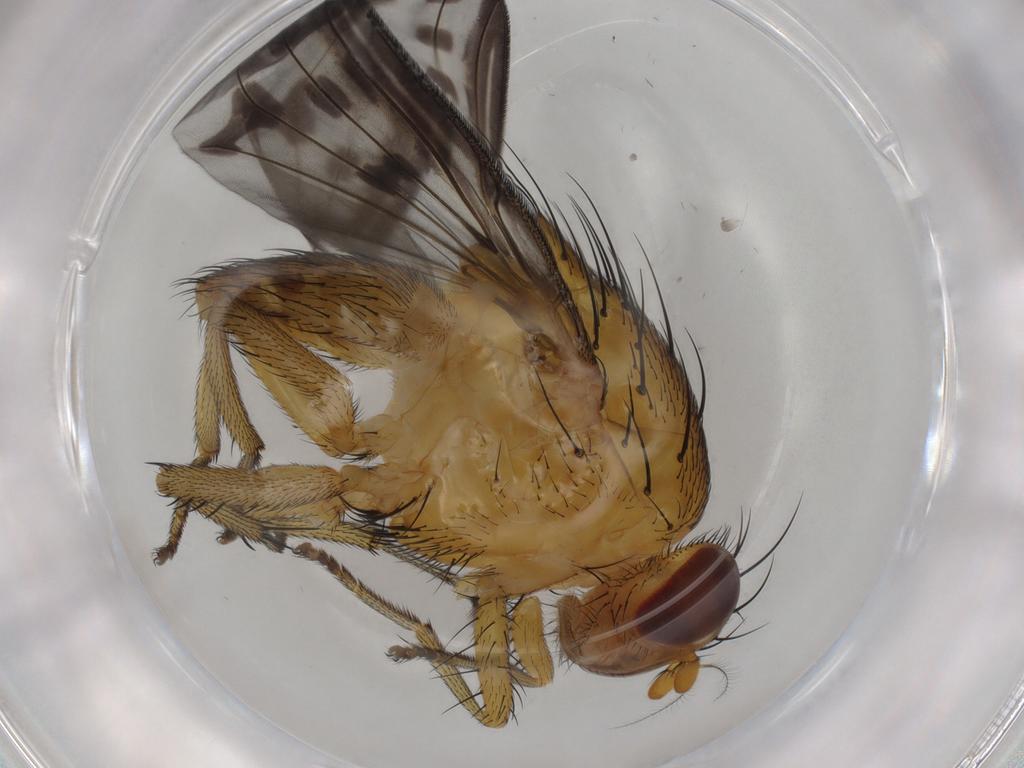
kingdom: Animalia
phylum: Arthropoda
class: Insecta
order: Diptera
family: Lauxaniidae
